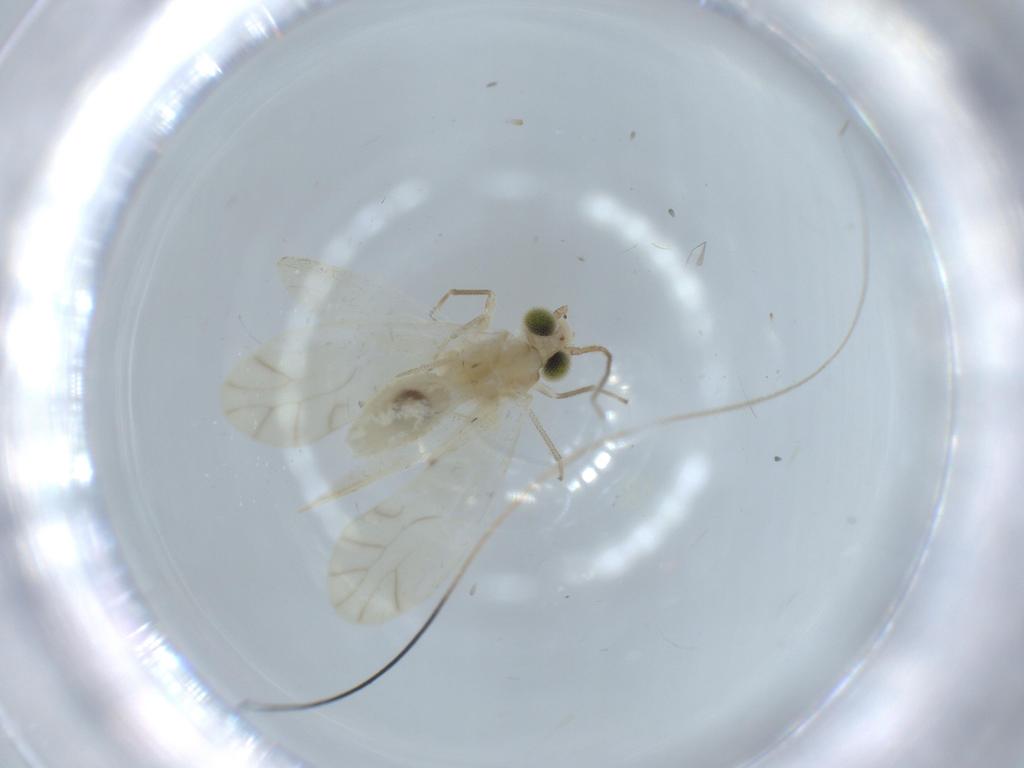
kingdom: Animalia
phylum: Arthropoda
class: Insecta
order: Psocodea
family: Caeciliusidae
